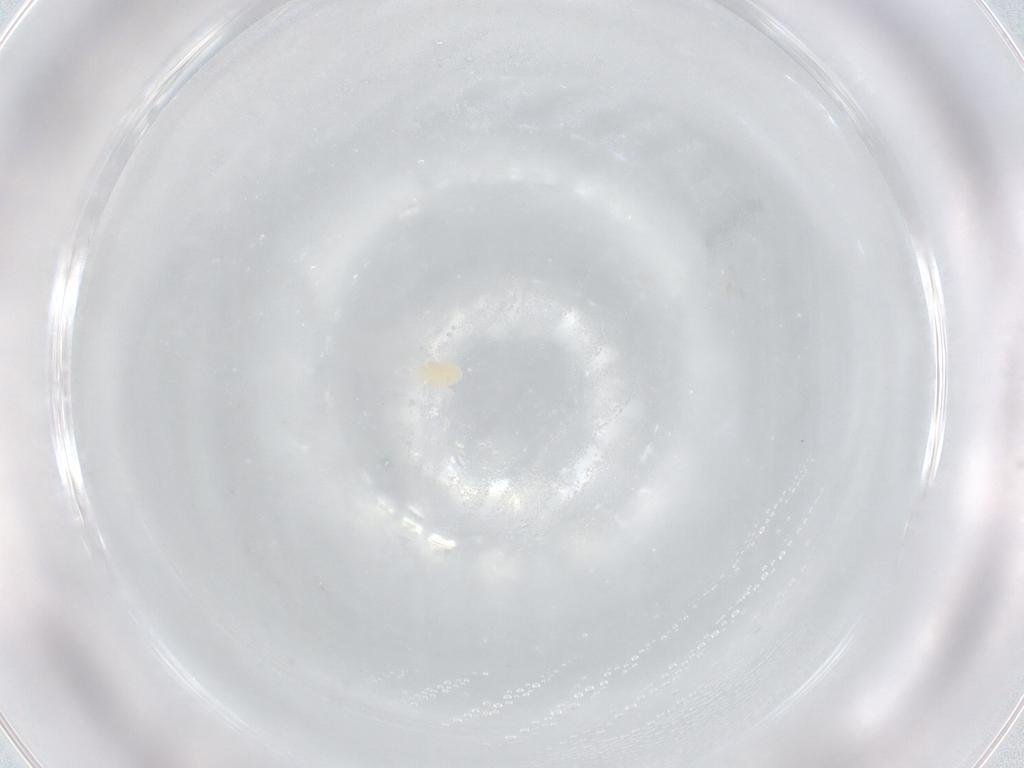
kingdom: Animalia
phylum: Arthropoda
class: Arachnida
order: Trombidiformes
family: Eupodidae
